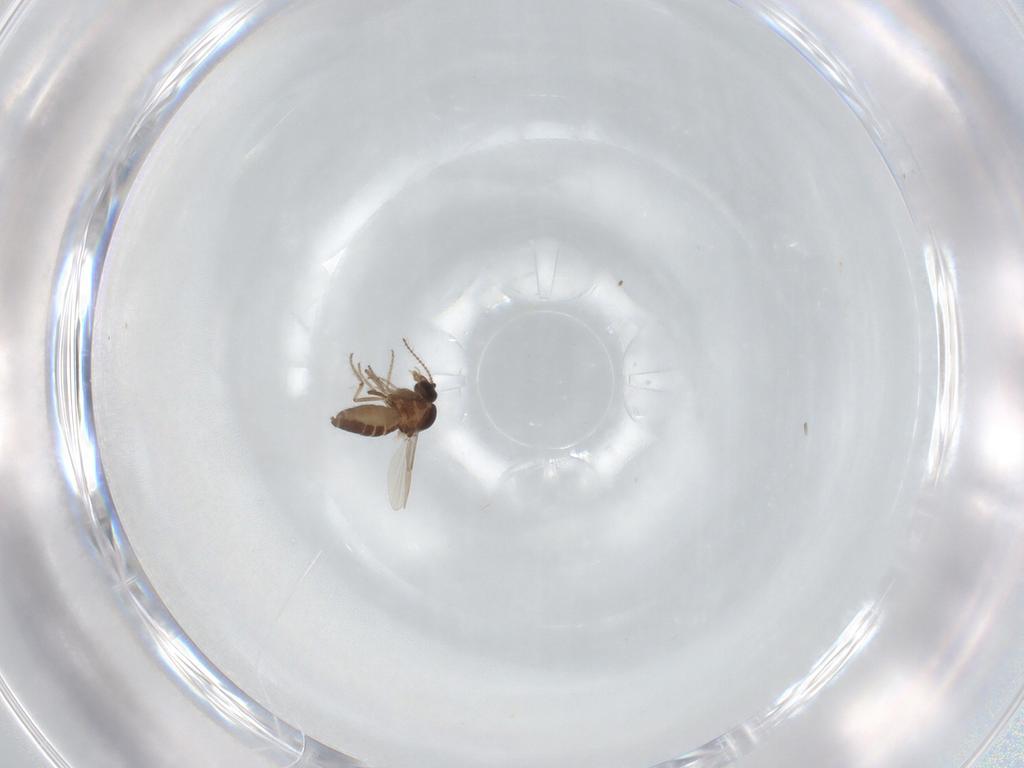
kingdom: Animalia
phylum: Arthropoda
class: Insecta
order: Diptera
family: Ceratopogonidae
